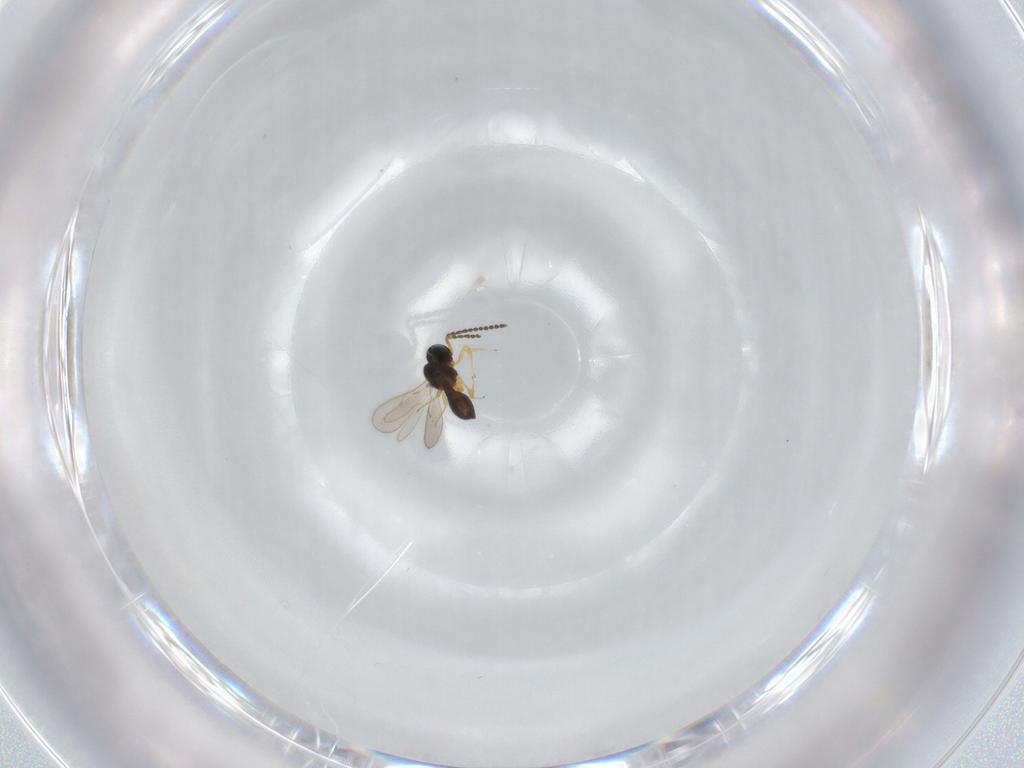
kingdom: Animalia
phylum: Arthropoda
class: Insecta
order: Hymenoptera
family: Scelionidae
